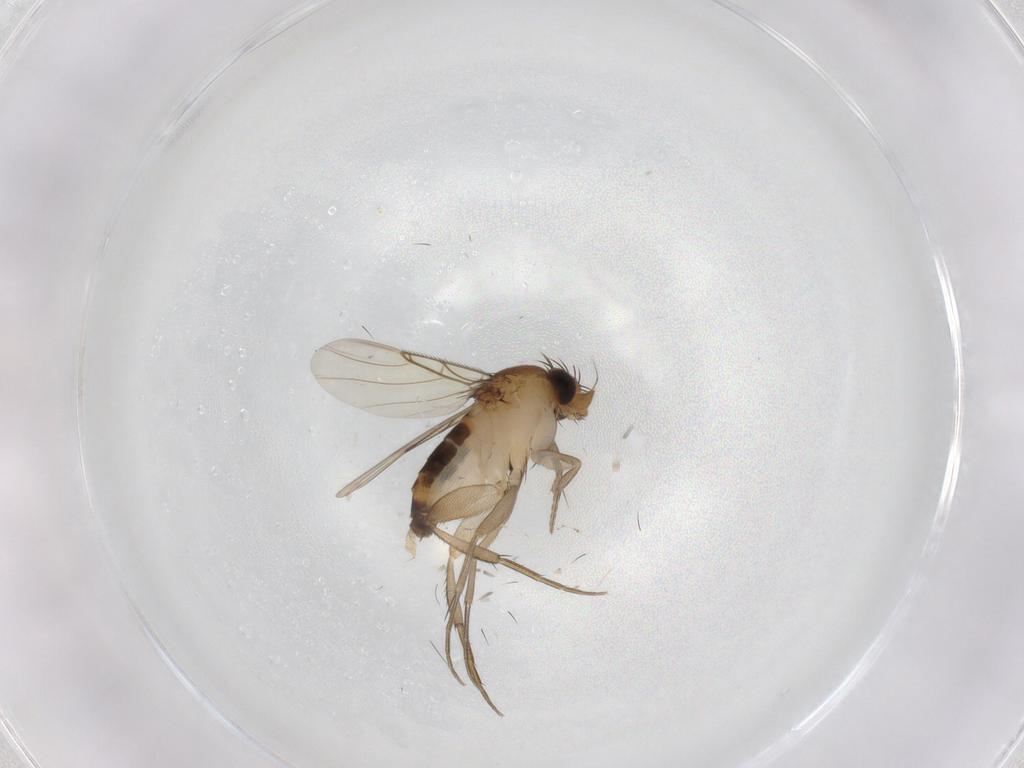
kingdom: Animalia
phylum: Arthropoda
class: Insecta
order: Diptera
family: Phoridae
